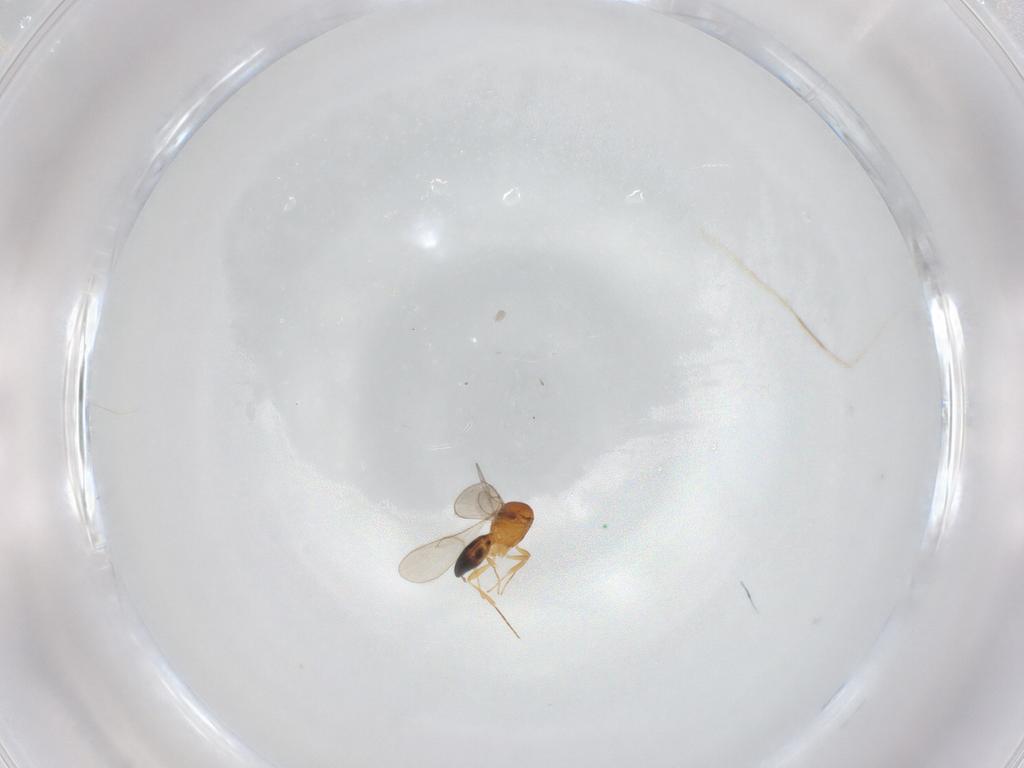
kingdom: Animalia
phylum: Arthropoda
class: Insecta
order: Hymenoptera
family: Scelionidae
